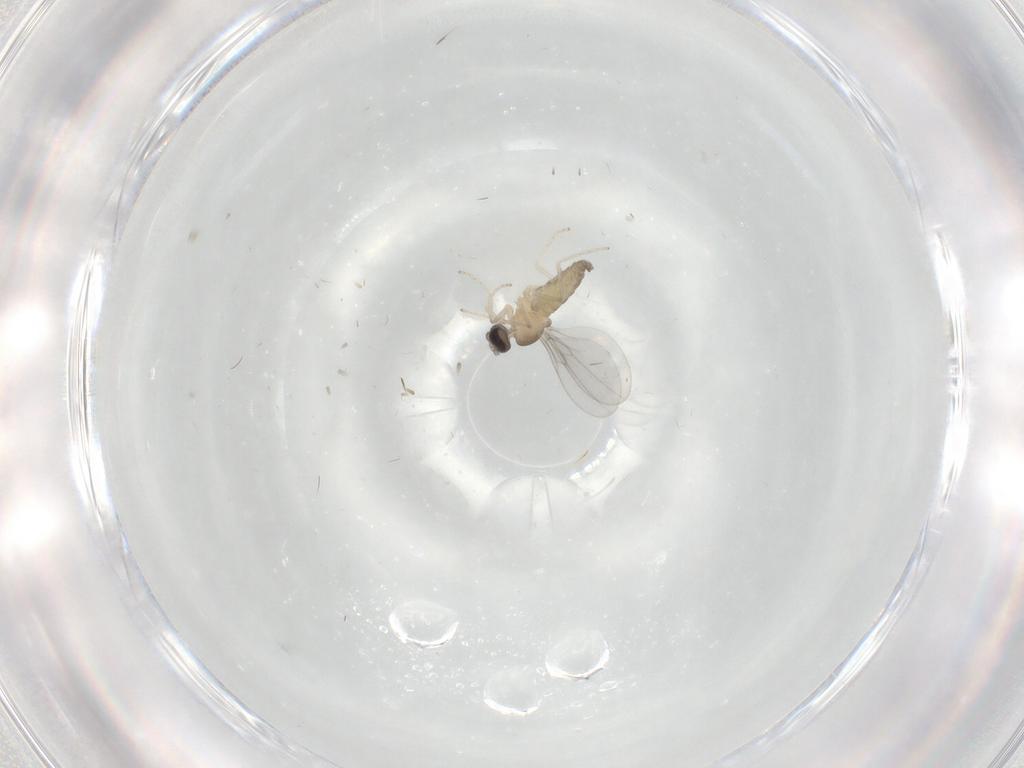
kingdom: Animalia
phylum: Arthropoda
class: Insecta
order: Diptera
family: Cecidomyiidae
